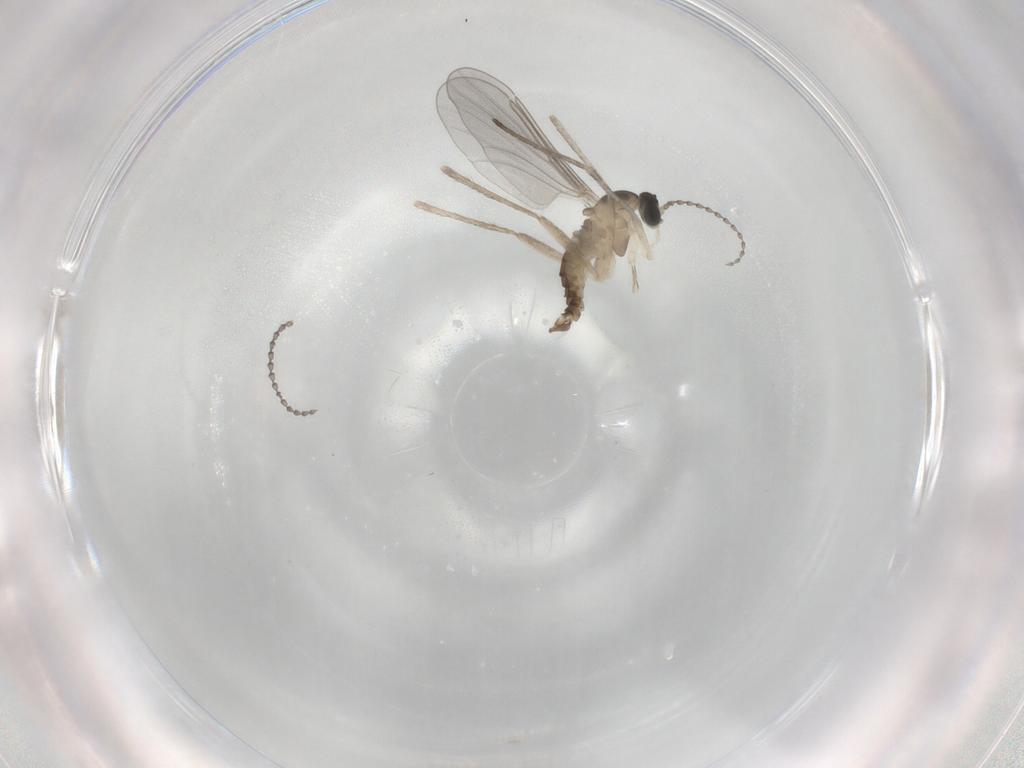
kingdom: Animalia
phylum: Arthropoda
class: Insecta
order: Diptera
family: Cecidomyiidae
